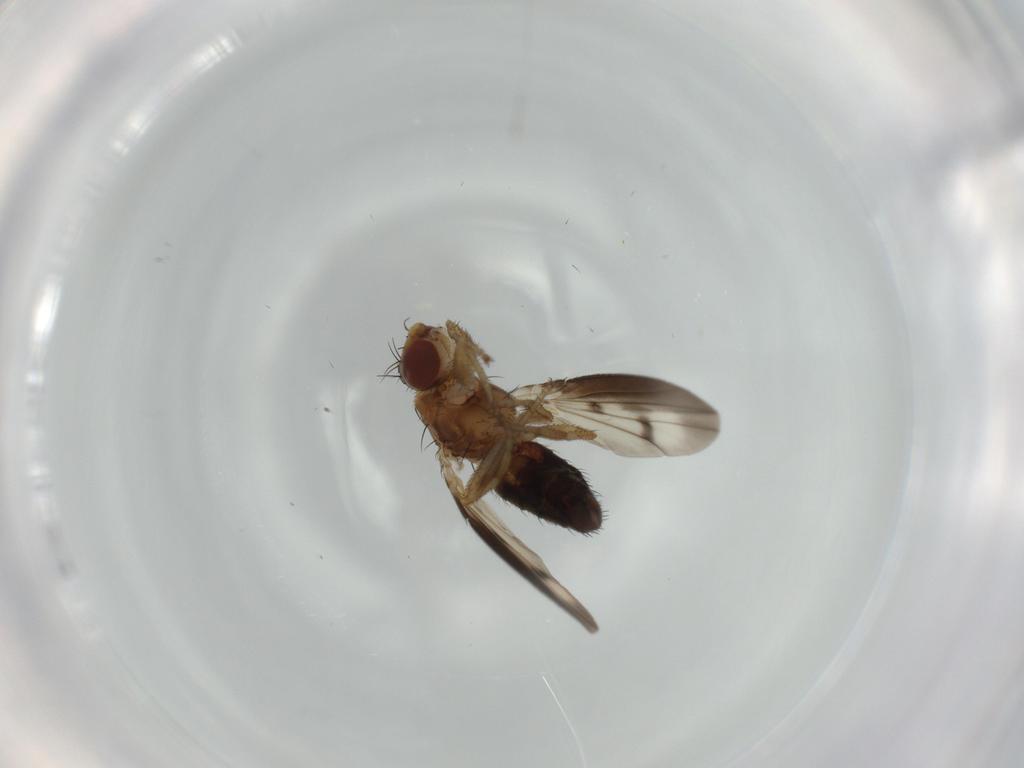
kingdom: Animalia
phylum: Arthropoda
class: Insecta
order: Diptera
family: Heleomyzidae
